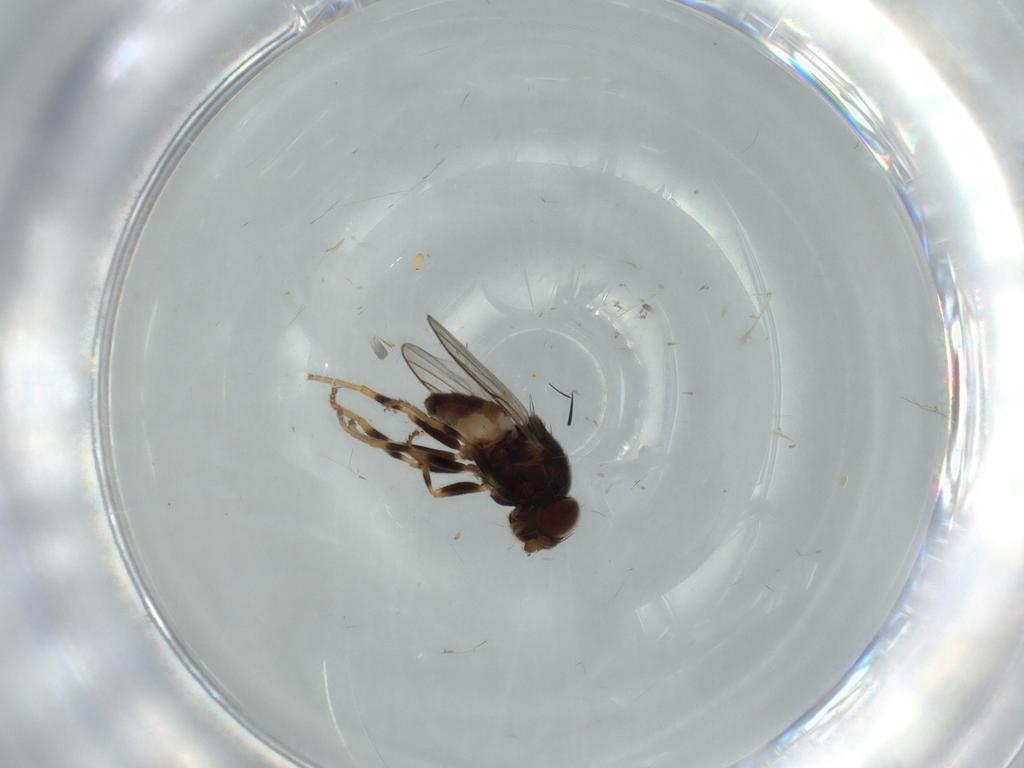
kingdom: Animalia
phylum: Arthropoda
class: Insecta
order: Diptera
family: Chloropidae
